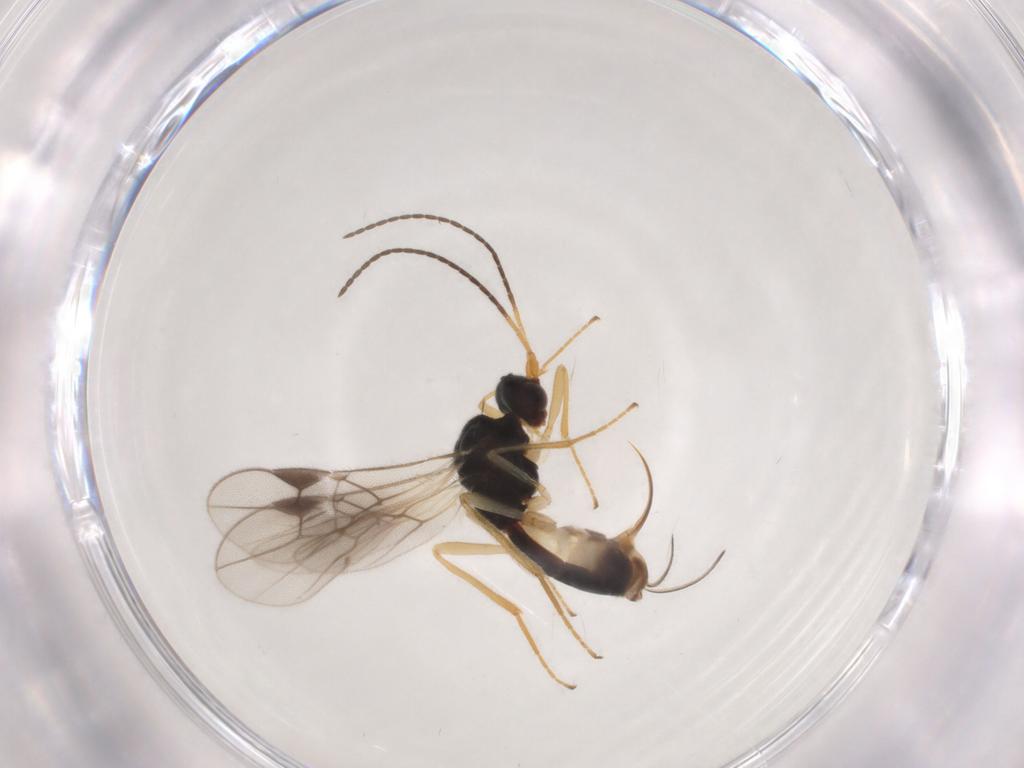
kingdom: Animalia
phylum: Arthropoda
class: Insecta
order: Hymenoptera
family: Braconidae
